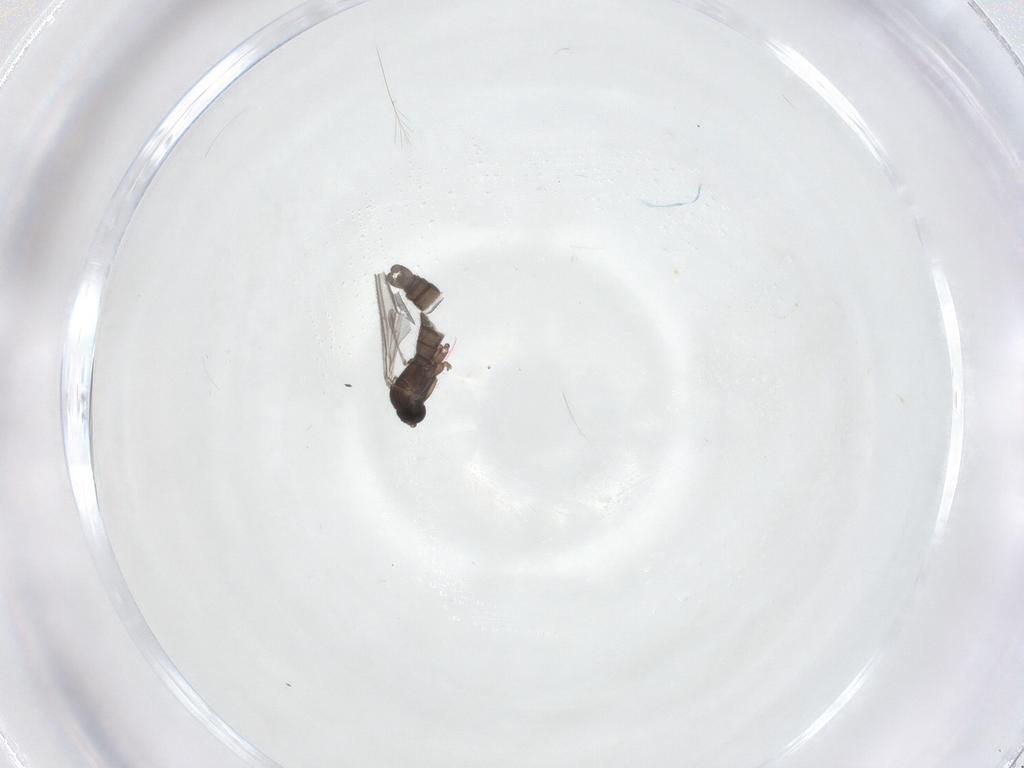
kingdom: Animalia
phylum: Arthropoda
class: Insecta
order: Diptera
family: Sciaridae
